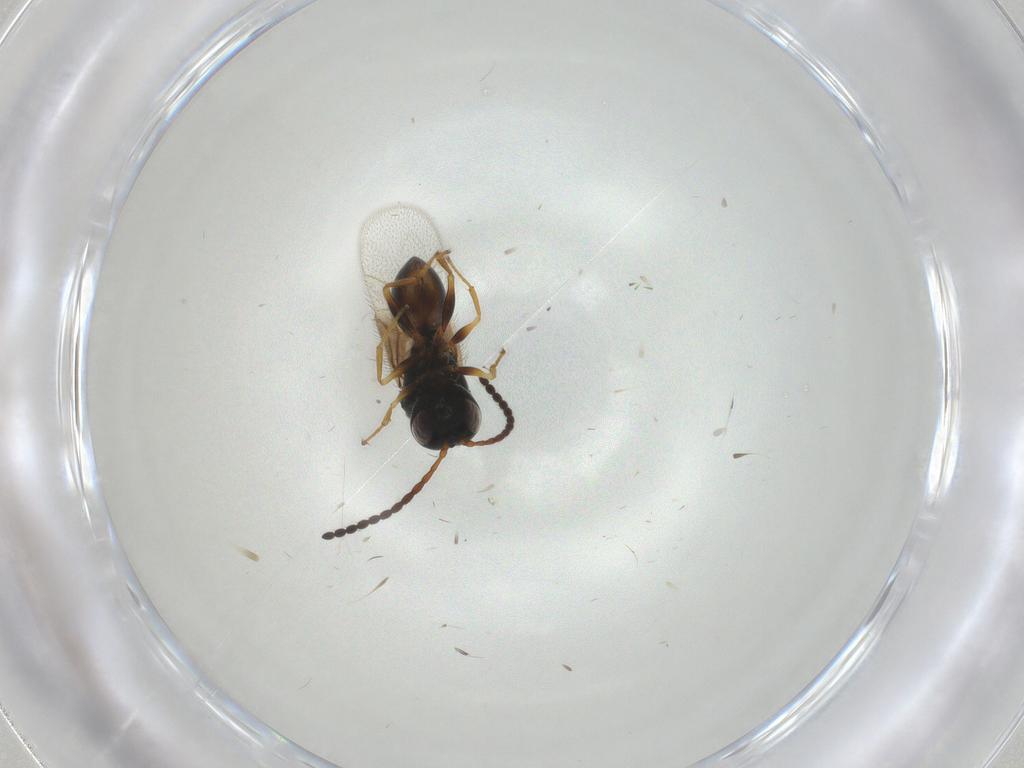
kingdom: Animalia
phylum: Arthropoda
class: Insecta
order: Hymenoptera
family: Figitidae
